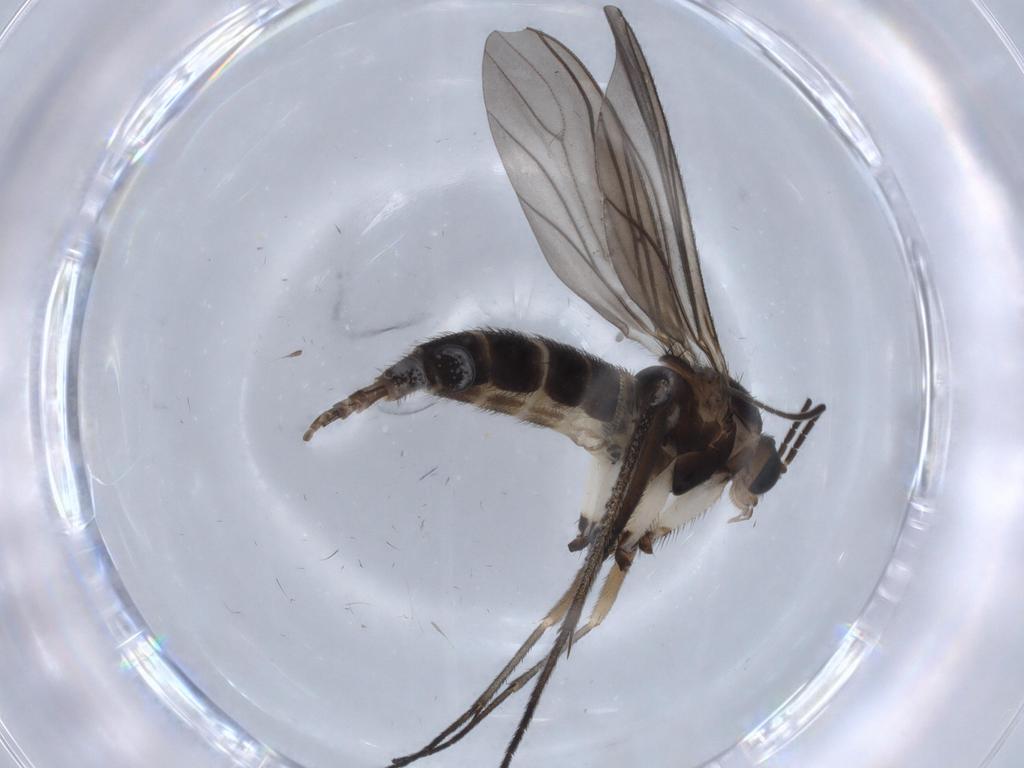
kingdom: Animalia
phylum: Arthropoda
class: Insecta
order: Diptera
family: Sciaridae
